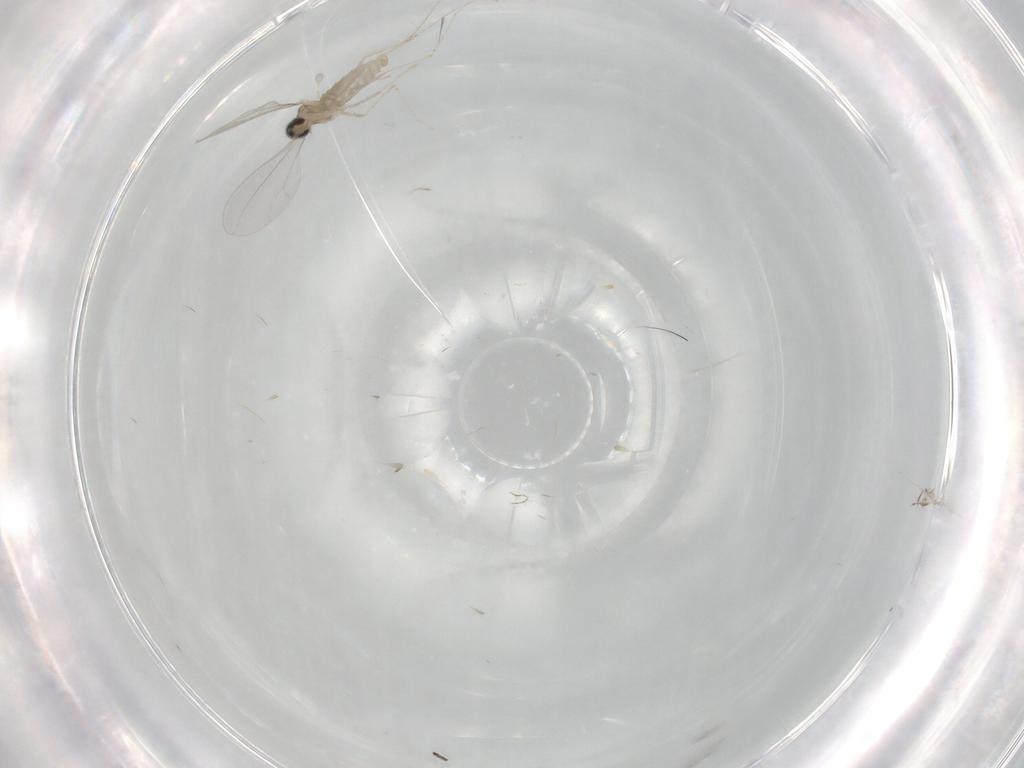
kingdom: Animalia
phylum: Arthropoda
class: Insecta
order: Diptera
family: Cecidomyiidae
